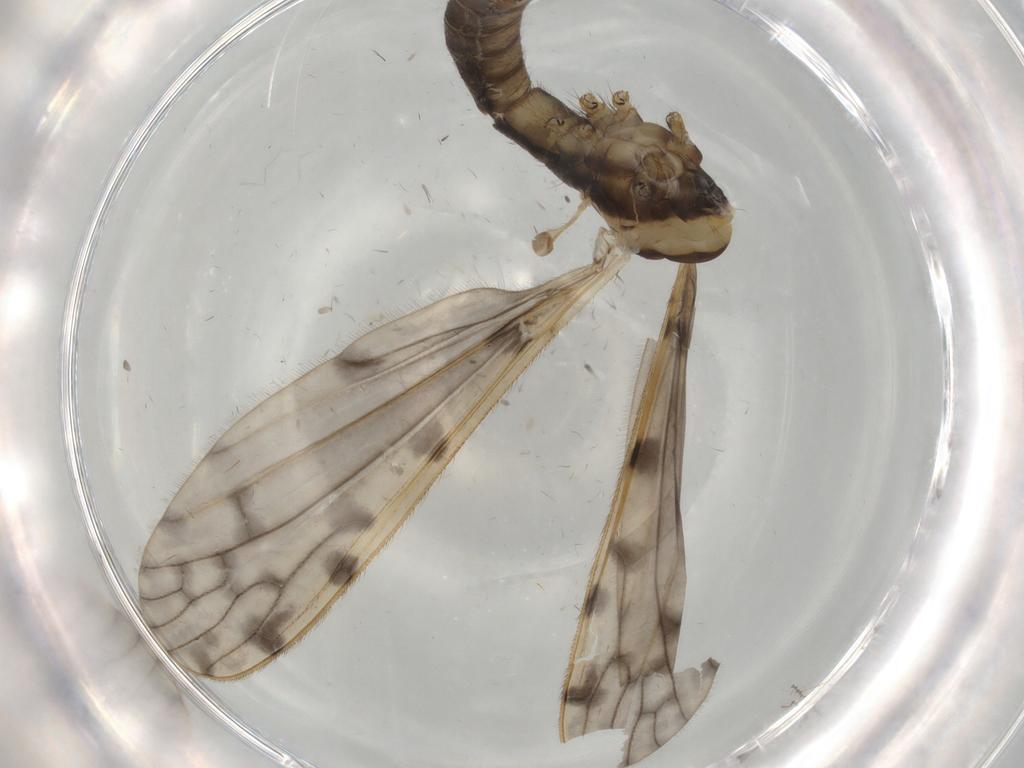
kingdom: Animalia
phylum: Arthropoda
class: Insecta
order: Diptera
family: Limoniidae
